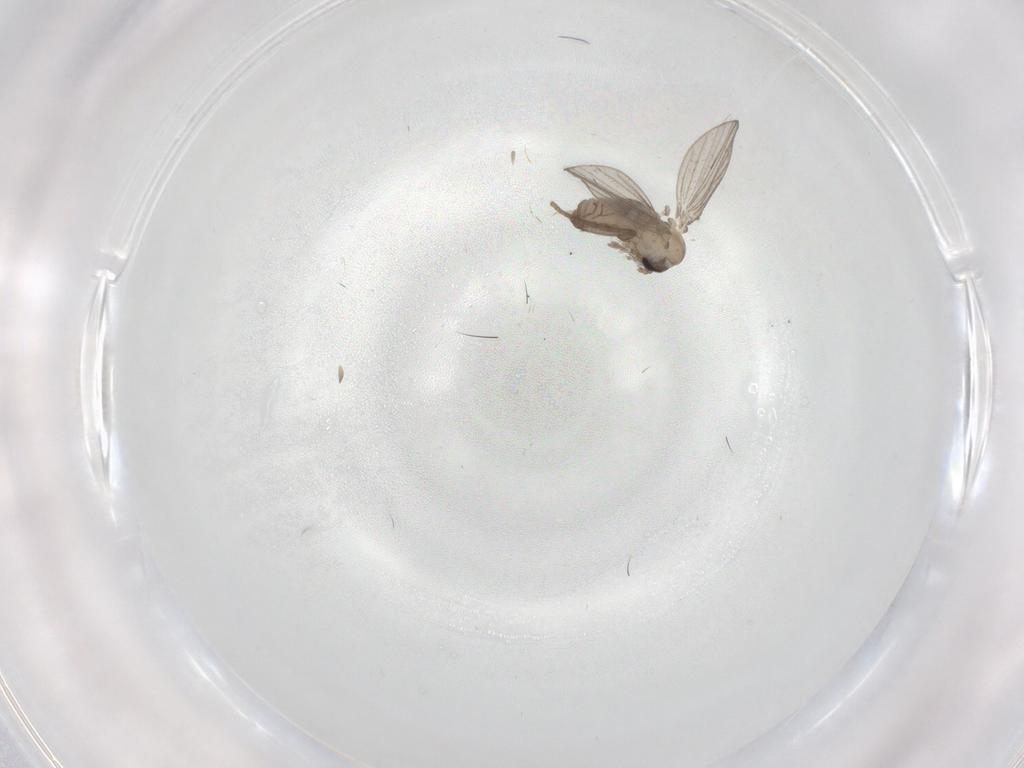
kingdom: Animalia
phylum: Arthropoda
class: Insecta
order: Diptera
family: Psychodidae
